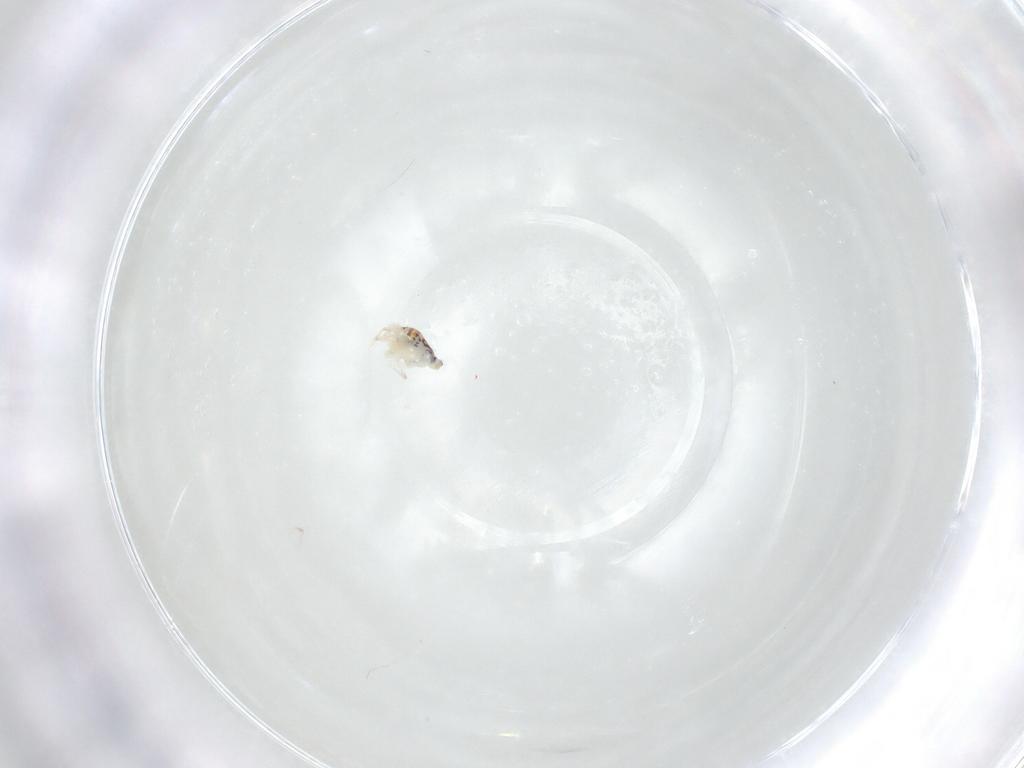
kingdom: Animalia
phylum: Arthropoda
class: Collembola
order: Symphypleona
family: Bourletiellidae
